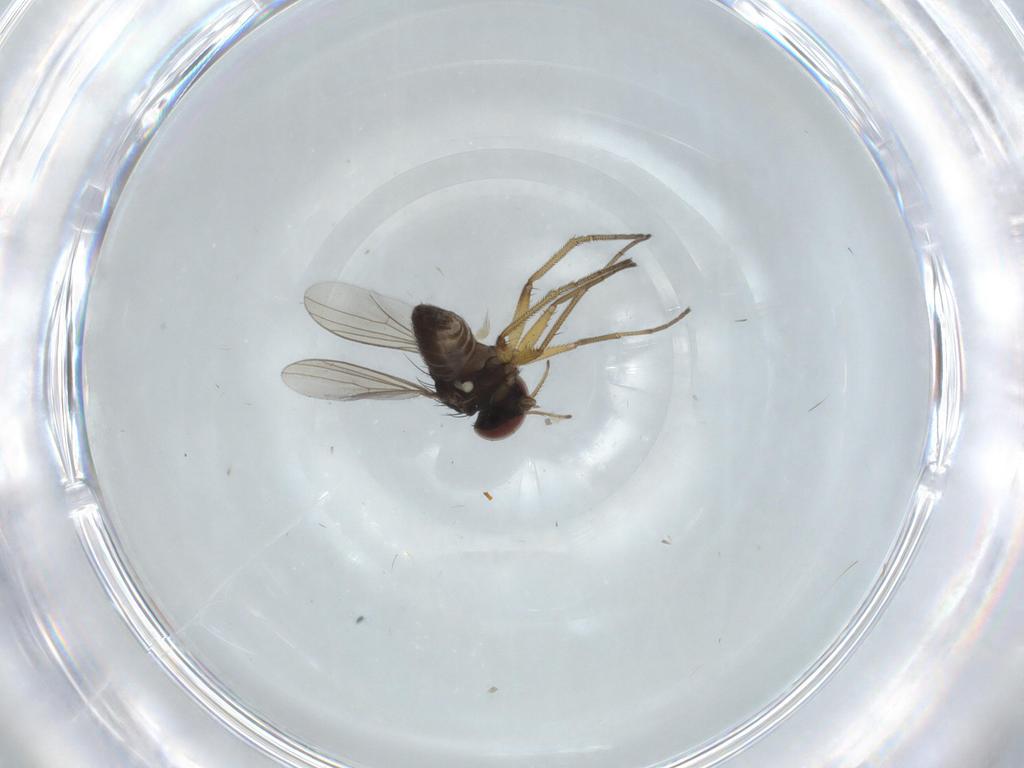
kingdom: Animalia
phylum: Arthropoda
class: Insecta
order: Diptera
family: Dolichopodidae
